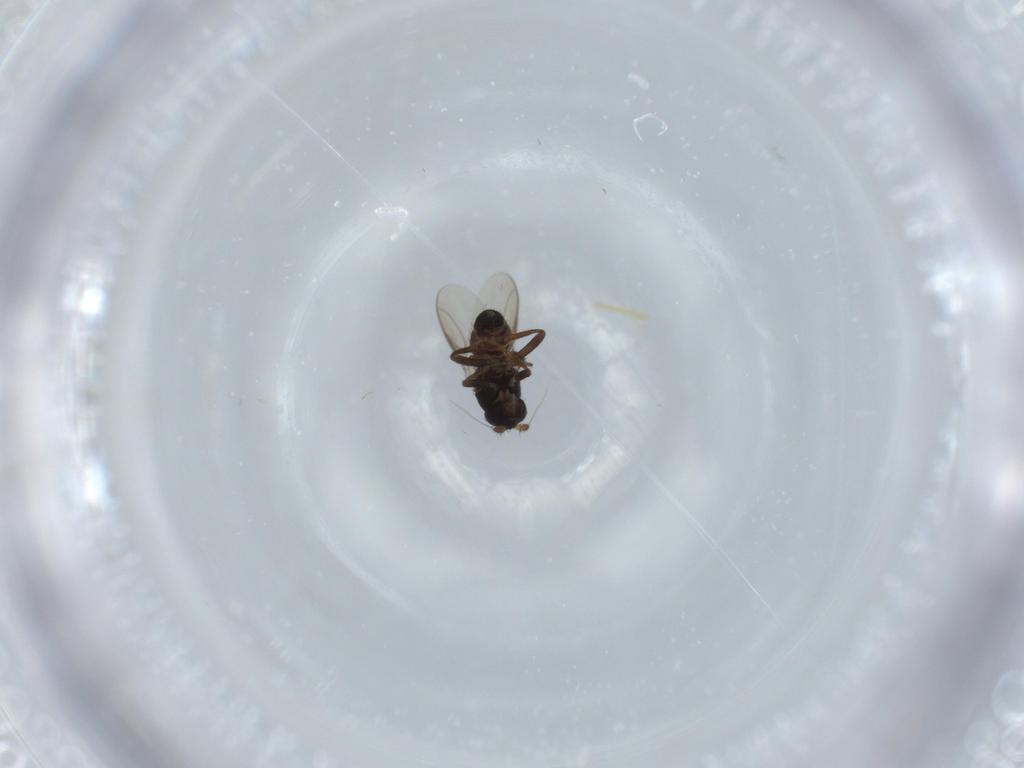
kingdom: Animalia
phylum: Arthropoda
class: Insecta
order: Diptera
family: Sphaeroceridae
